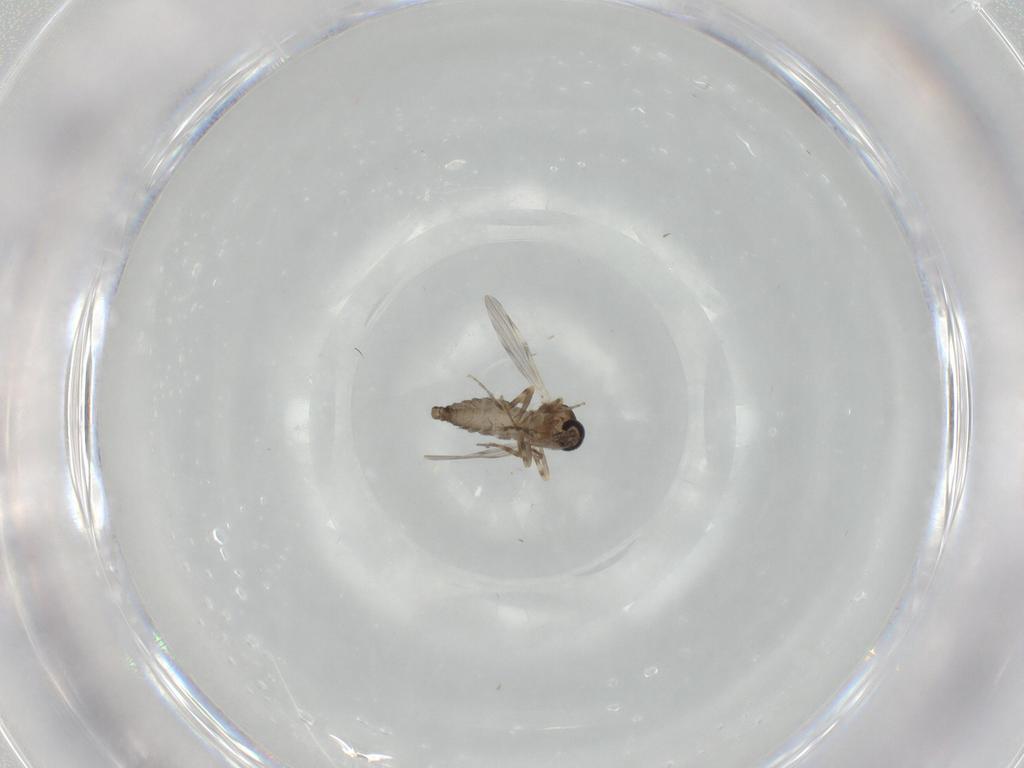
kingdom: Animalia
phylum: Arthropoda
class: Insecta
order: Diptera
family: Ceratopogonidae
